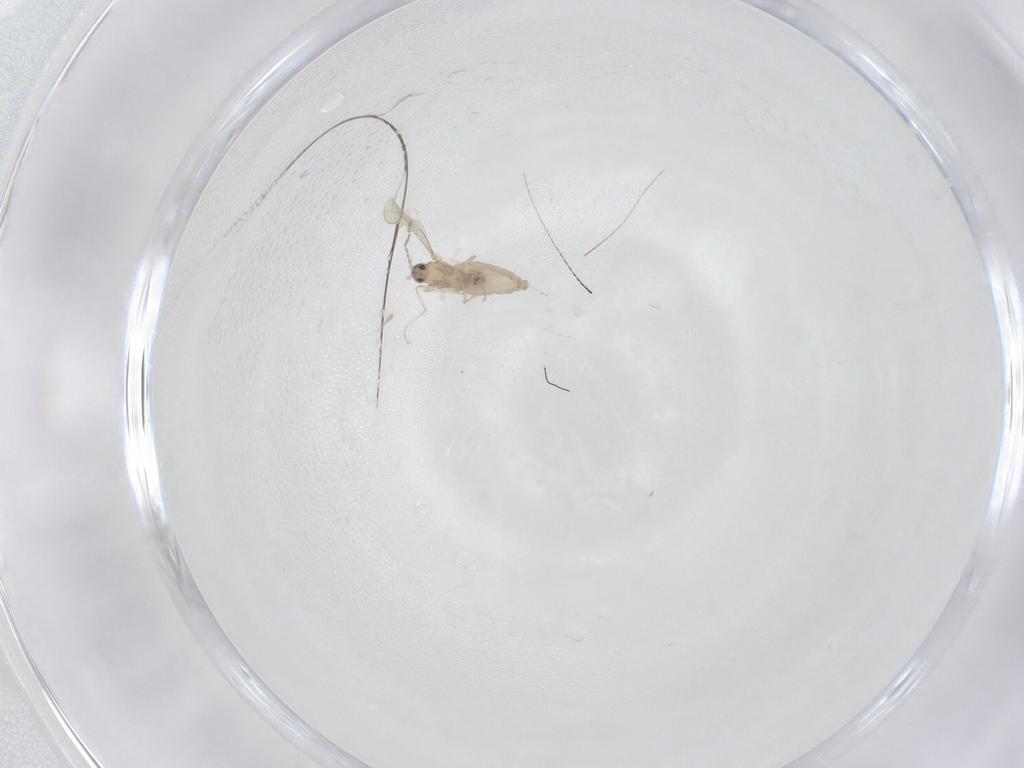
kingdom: Animalia
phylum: Arthropoda
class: Insecta
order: Diptera
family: Cecidomyiidae
